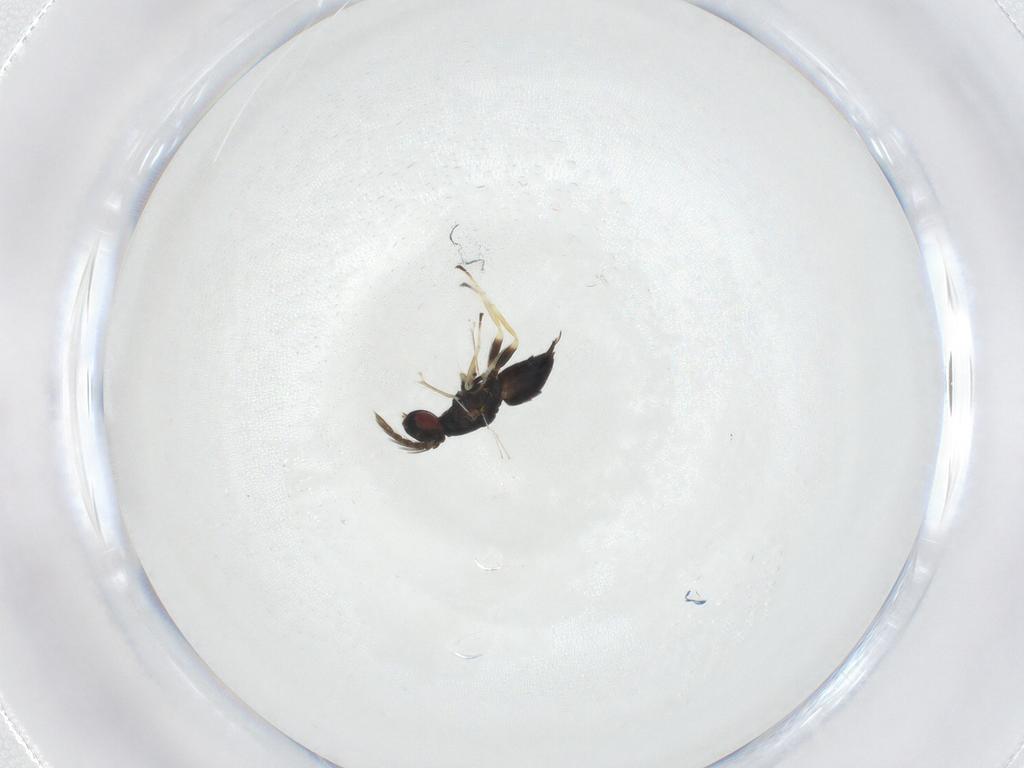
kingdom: Animalia
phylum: Arthropoda
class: Insecta
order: Hymenoptera
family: Eulophidae
